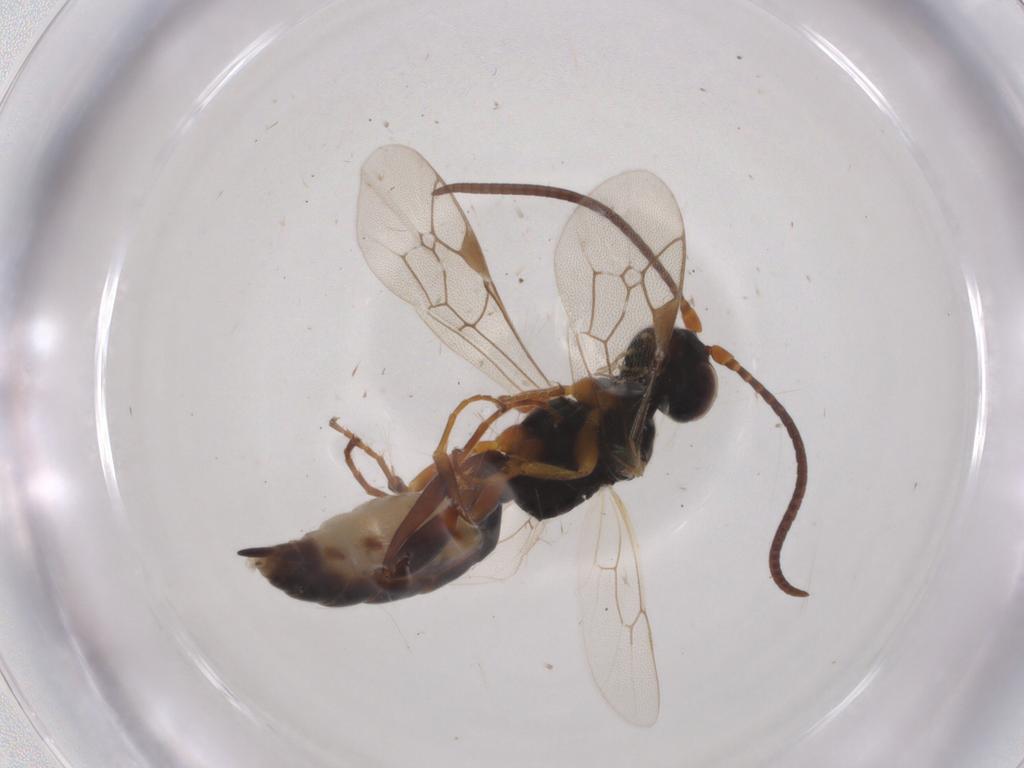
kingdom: Animalia
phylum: Arthropoda
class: Insecta
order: Hymenoptera
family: Ichneumonidae
